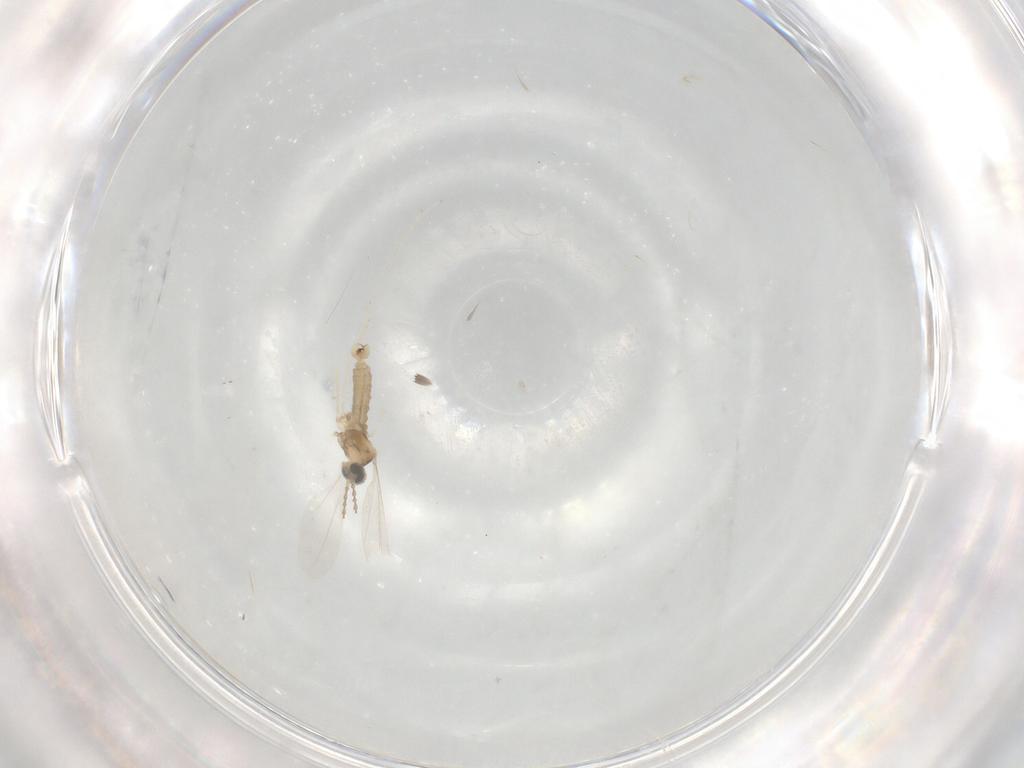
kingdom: Animalia
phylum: Arthropoda
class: Insecta
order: Diptera
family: Cecidomyiidae
